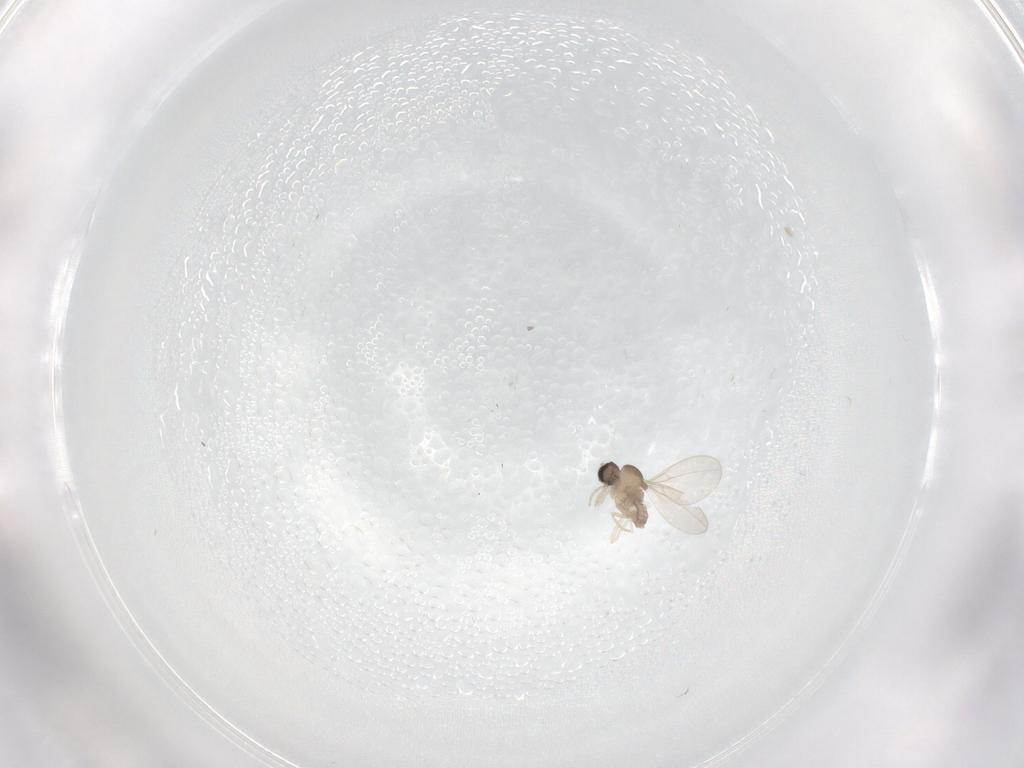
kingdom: Animalia
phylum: Arthropoda
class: Insecta
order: Diptera
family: Cecidomyiidae
